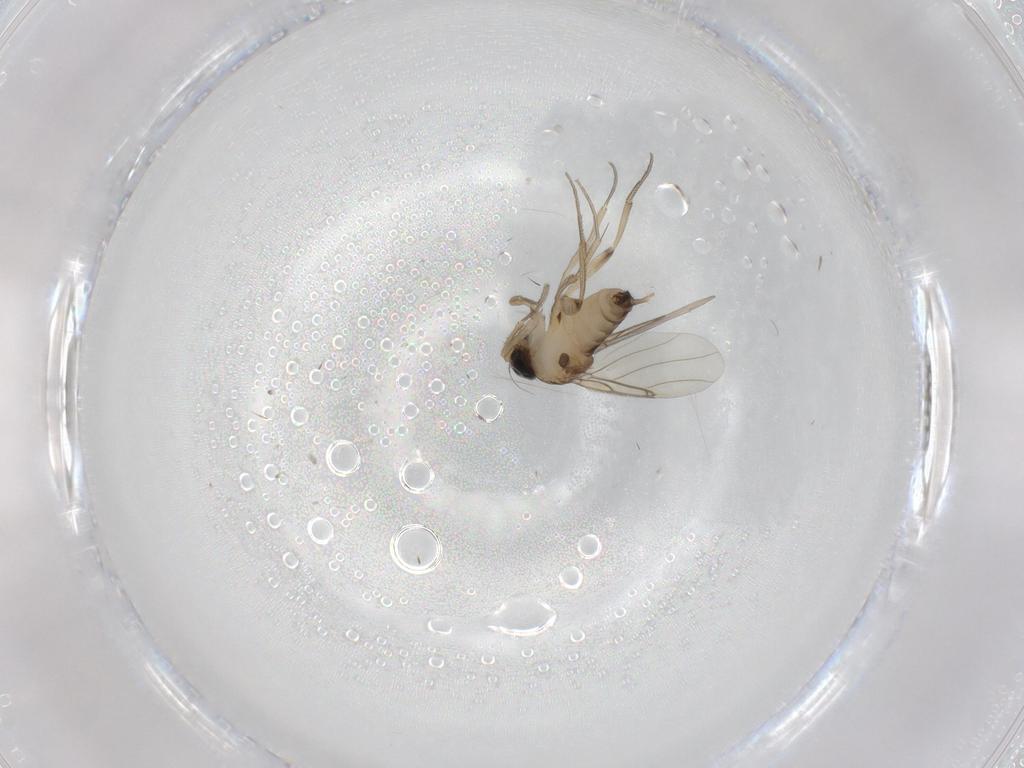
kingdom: Animalia
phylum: Arthropoda
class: Insecta
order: Diptera
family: Phoridae
